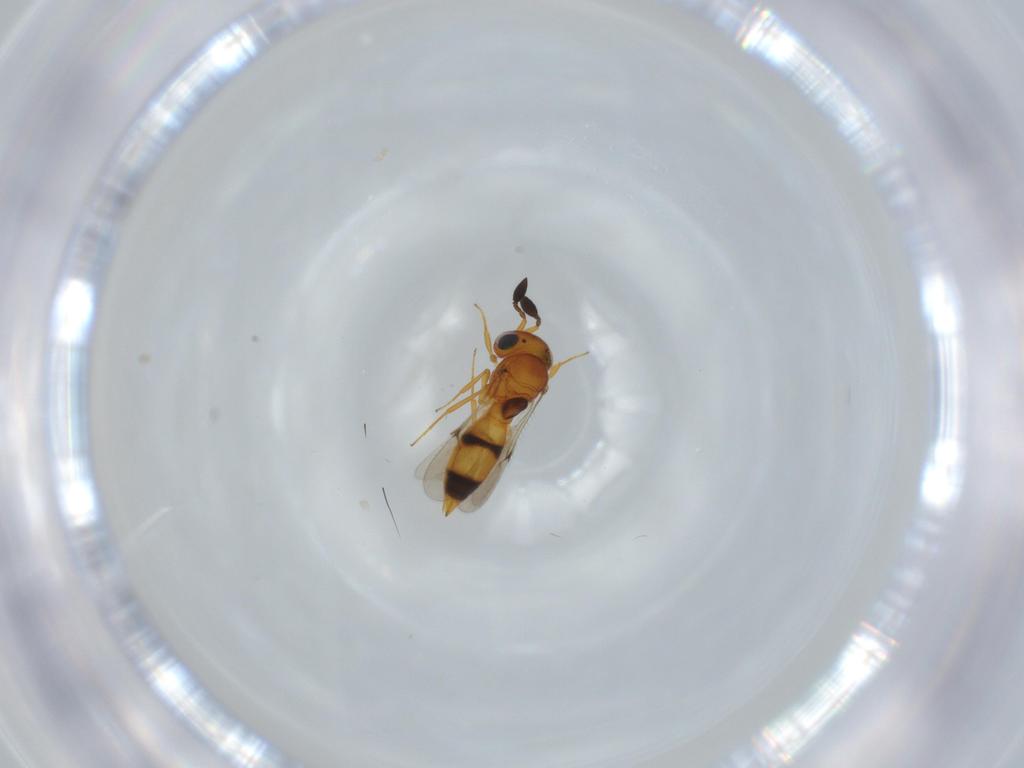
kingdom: Animalia
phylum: Arthropoda
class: Insecta
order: Hymenoptera
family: Scelionidae
